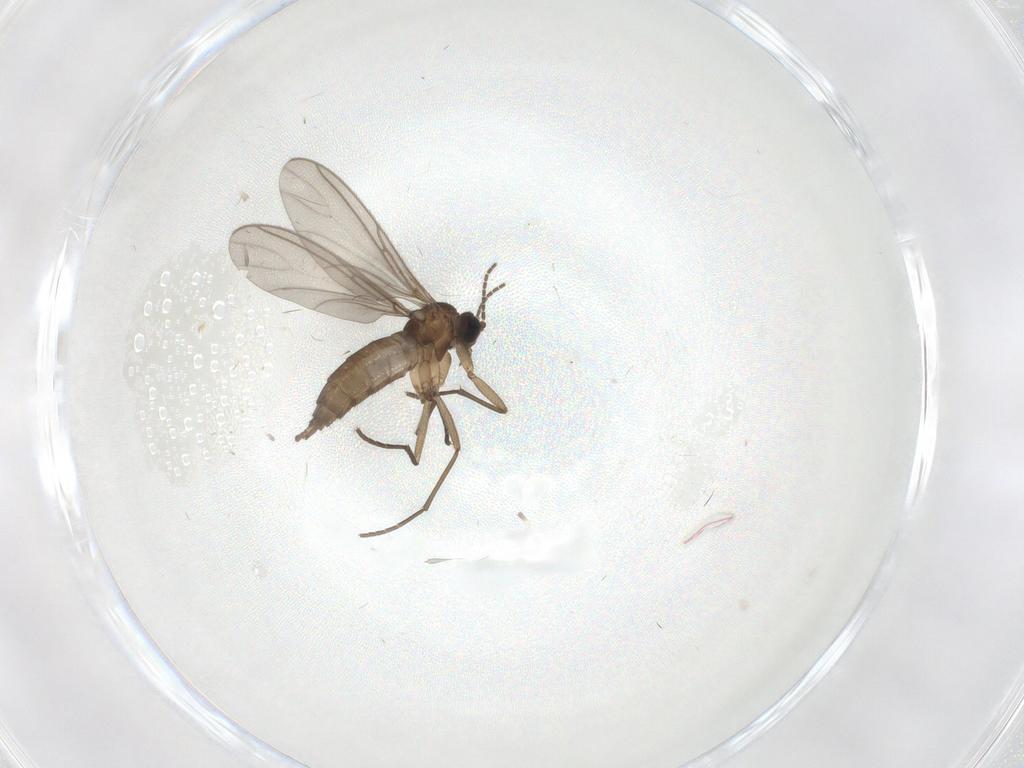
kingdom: Animalia
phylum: Arthropoda
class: Insecta
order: Diptera
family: Sciaridae
